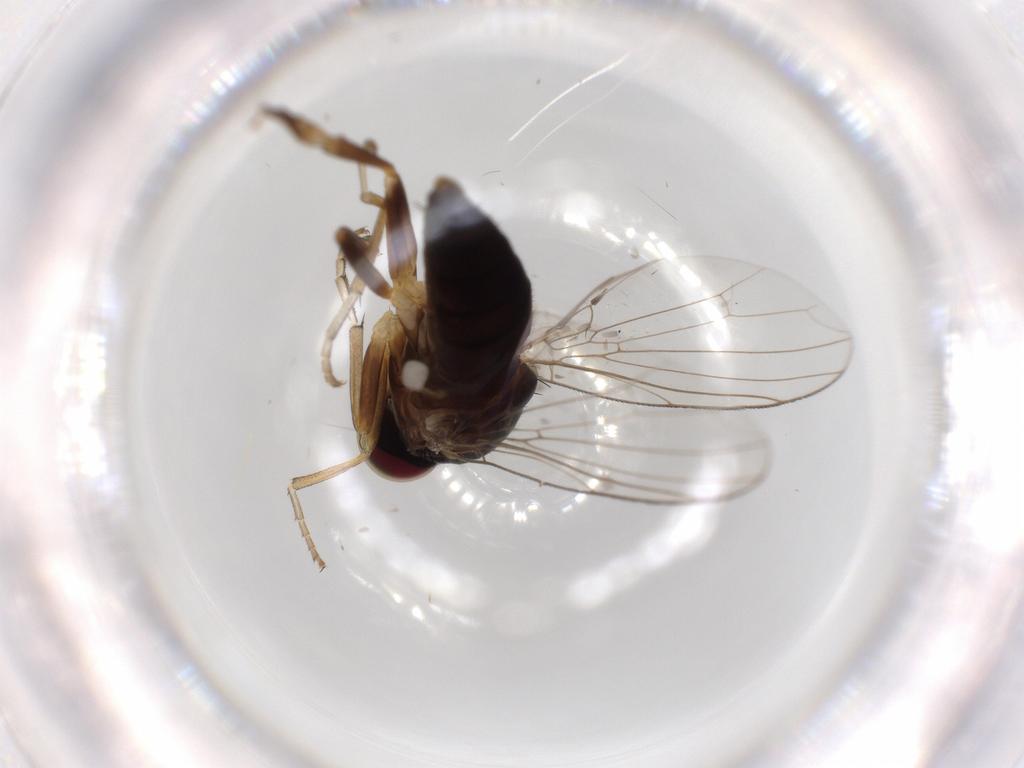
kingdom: Animalia
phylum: Arthropoda
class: Insecta
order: Diptera
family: Platypezidae
